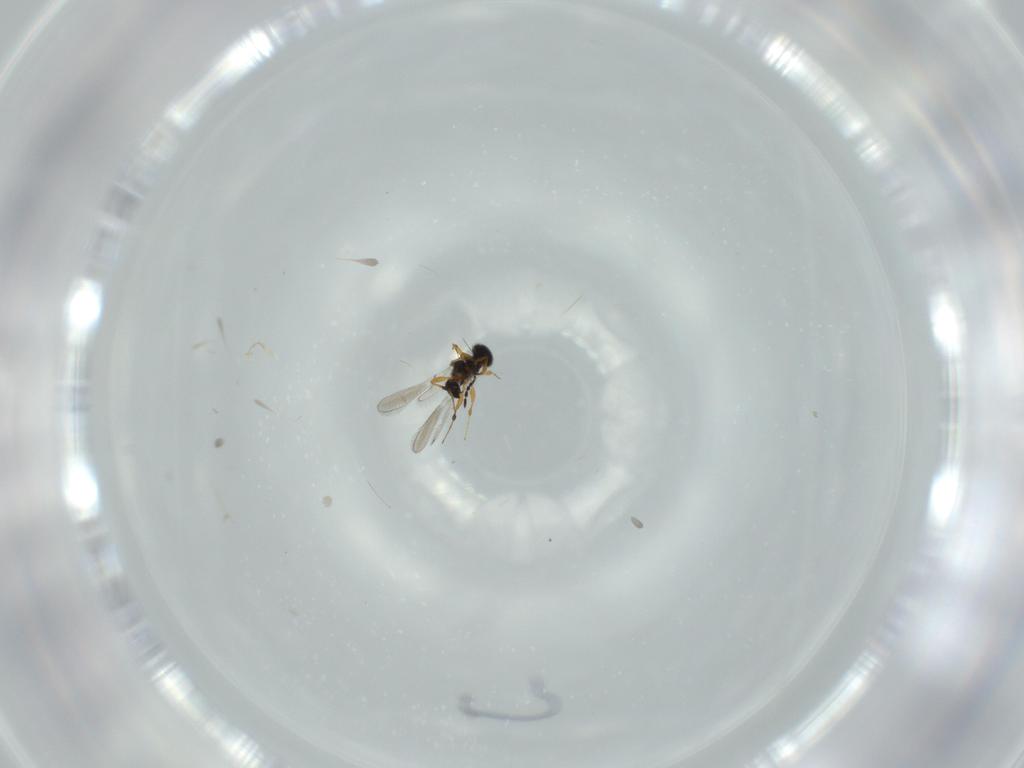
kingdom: Animalia
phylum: Arthropoda
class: Insecta
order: Hymenoptera
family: Platygastridae
